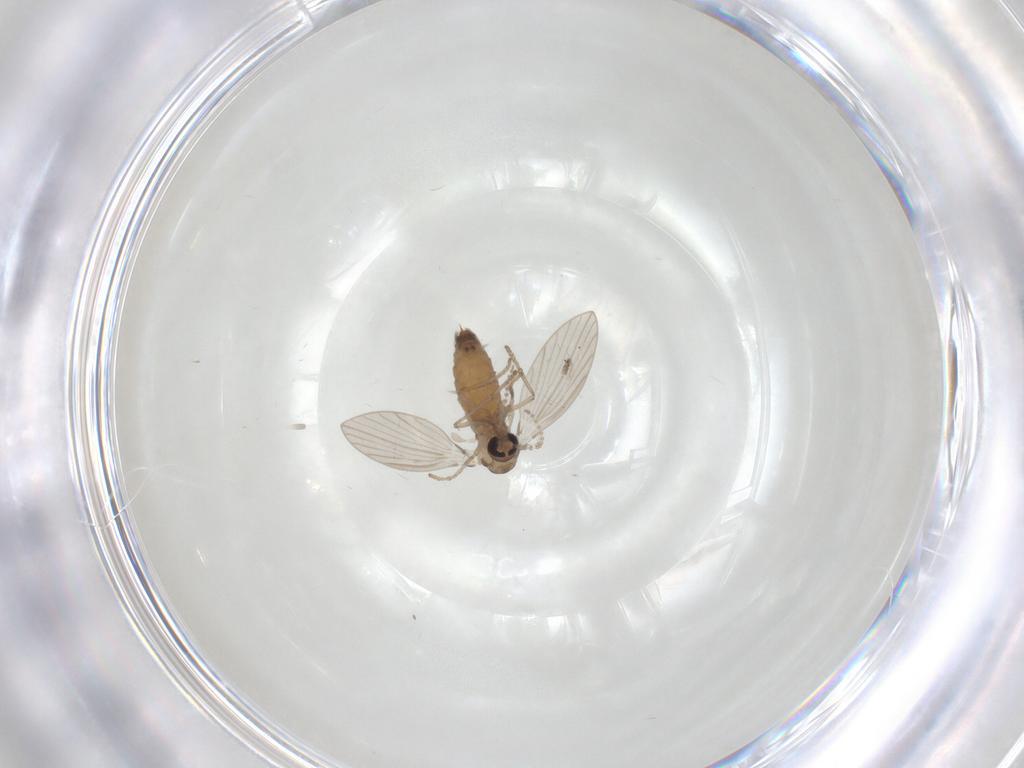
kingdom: Animalia
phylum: Arthropoda
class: Insecta
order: Diptera
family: Psychodidae
